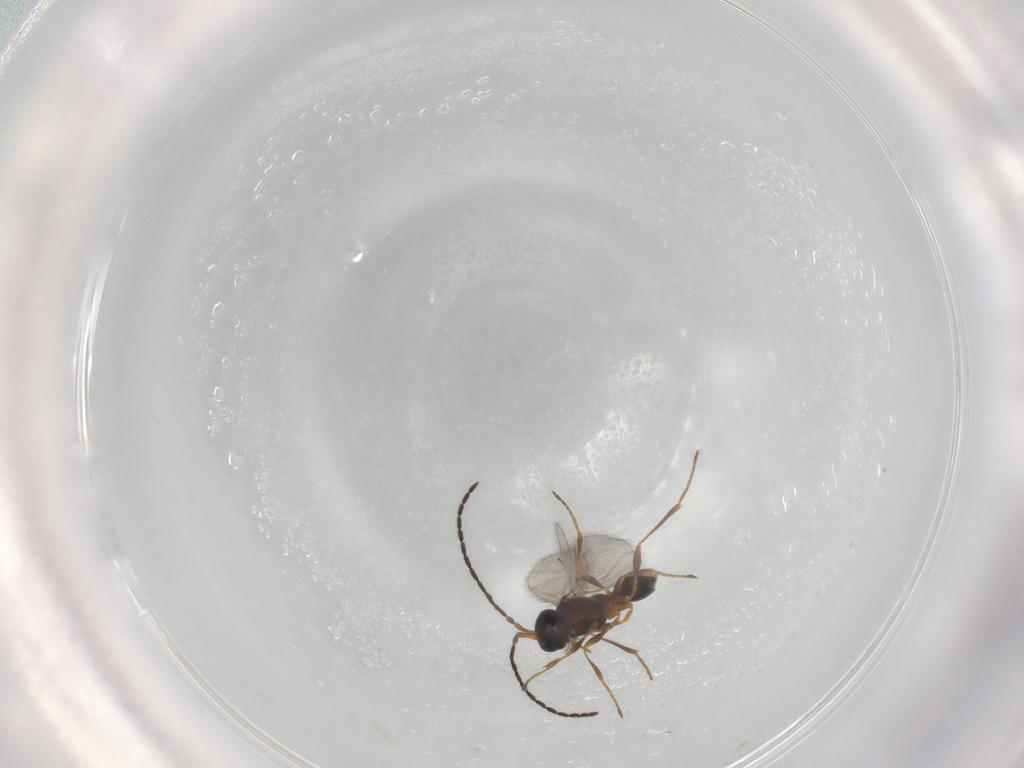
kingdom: Animalia
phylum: Arthropoda
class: Insecta
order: Hymenoptera
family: Diapriidae
